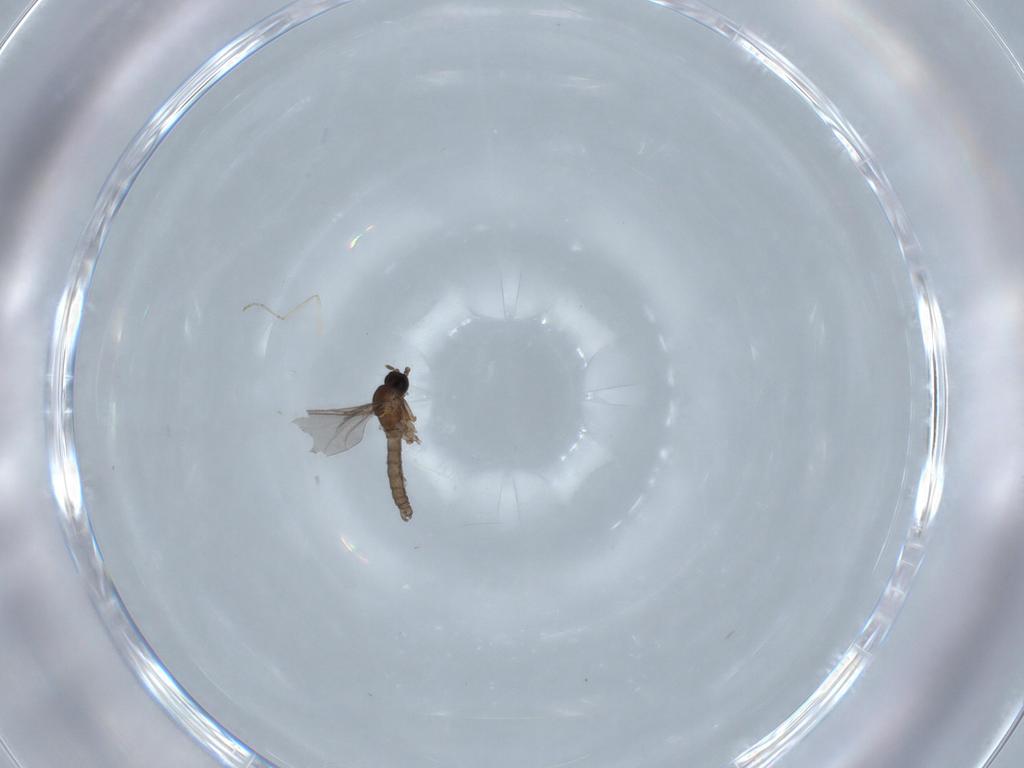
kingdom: Animalia
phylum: Arthropoda
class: Insecta
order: Diptera
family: Sciaridae
